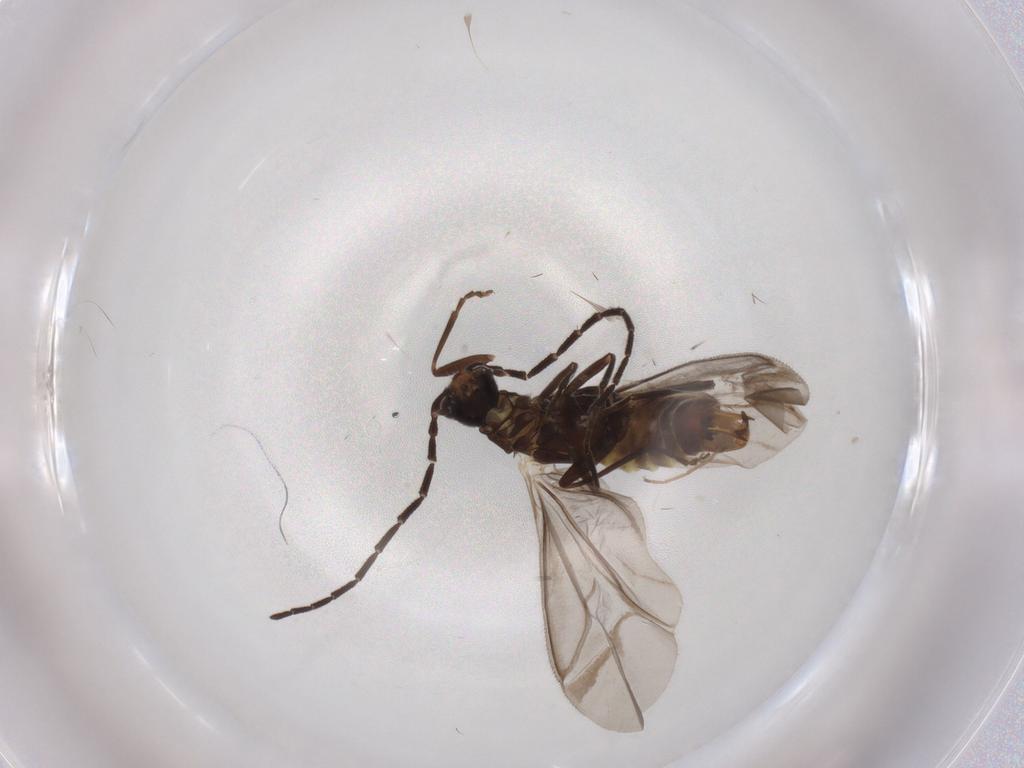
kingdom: Animalia
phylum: Arthropoda
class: Insecta
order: Coleoptera
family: Cantharidae
